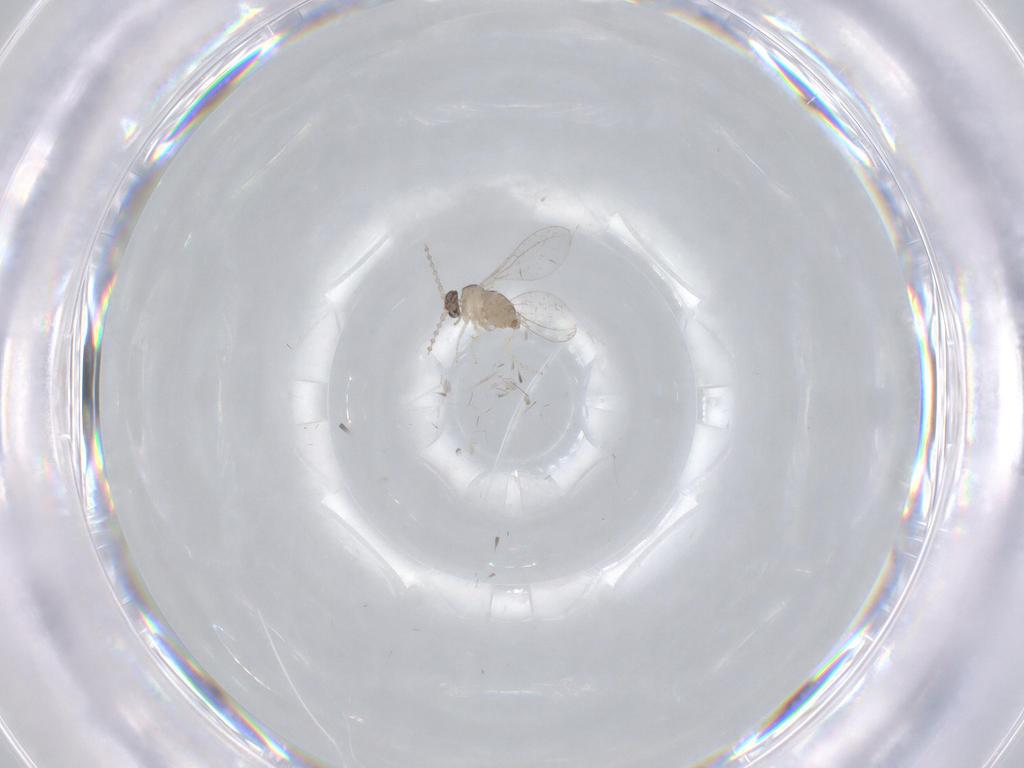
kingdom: Animalia
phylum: Arthropoda
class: Insecta
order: Diptera
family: Cecidomyiidae
